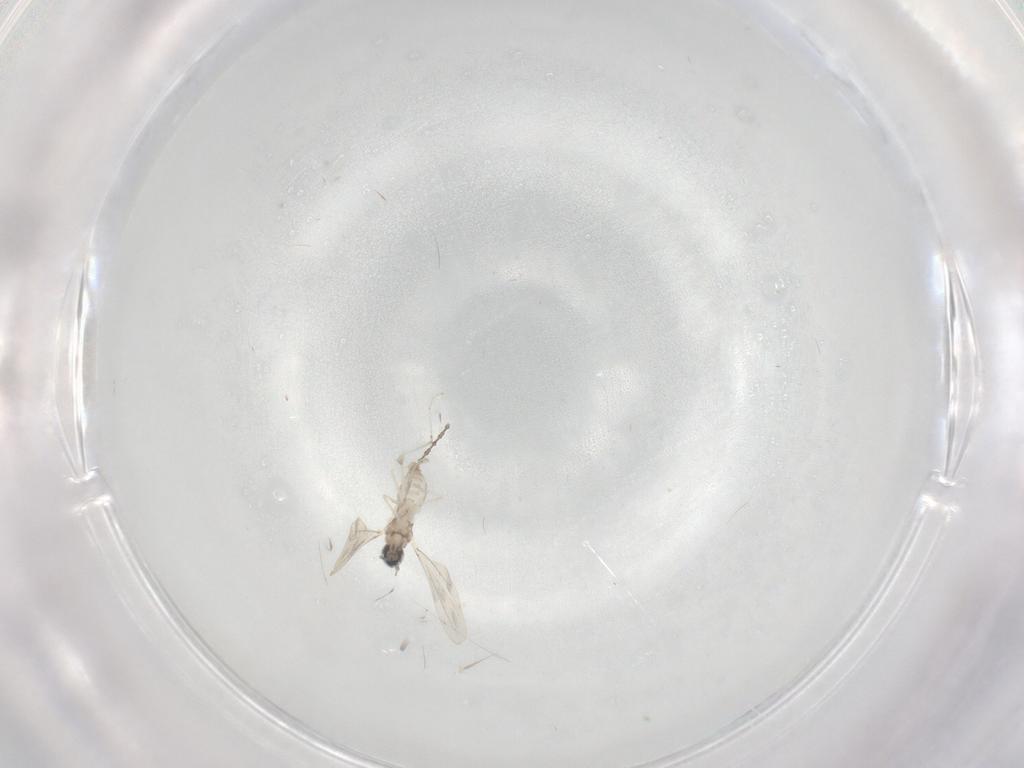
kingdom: Animalia
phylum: Arthropoda
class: Insecta
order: Diptera
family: Cecidomyiidae
